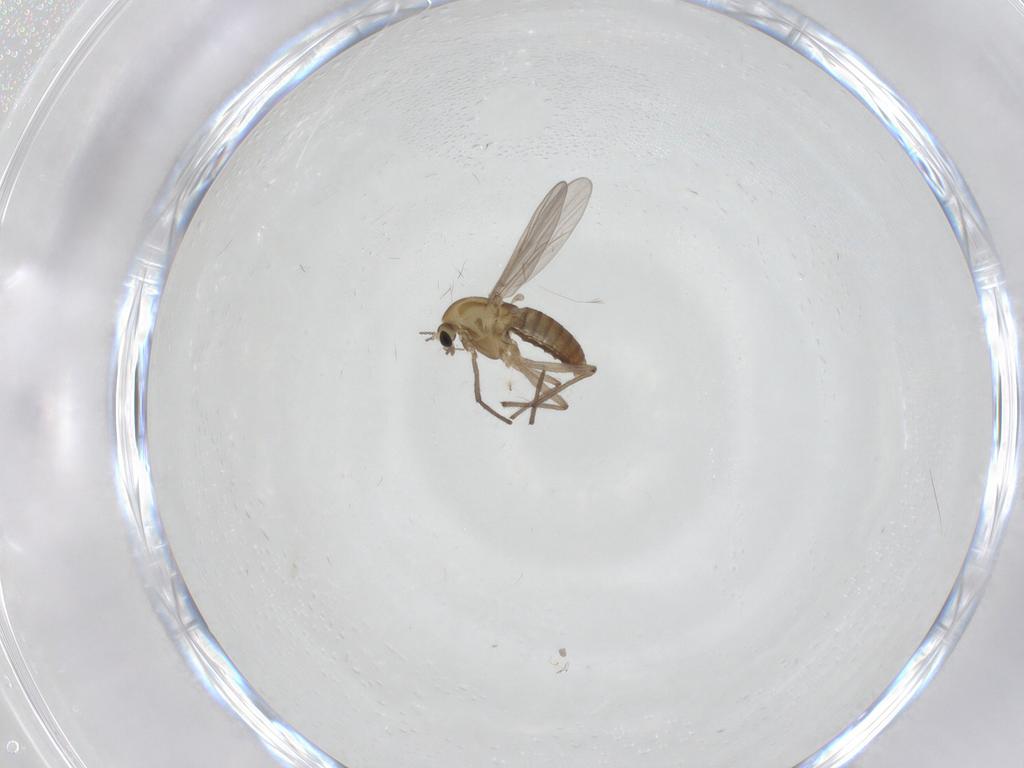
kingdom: Animalia
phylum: Arthropoda
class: Insecta
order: Diptera
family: Chironomidae
